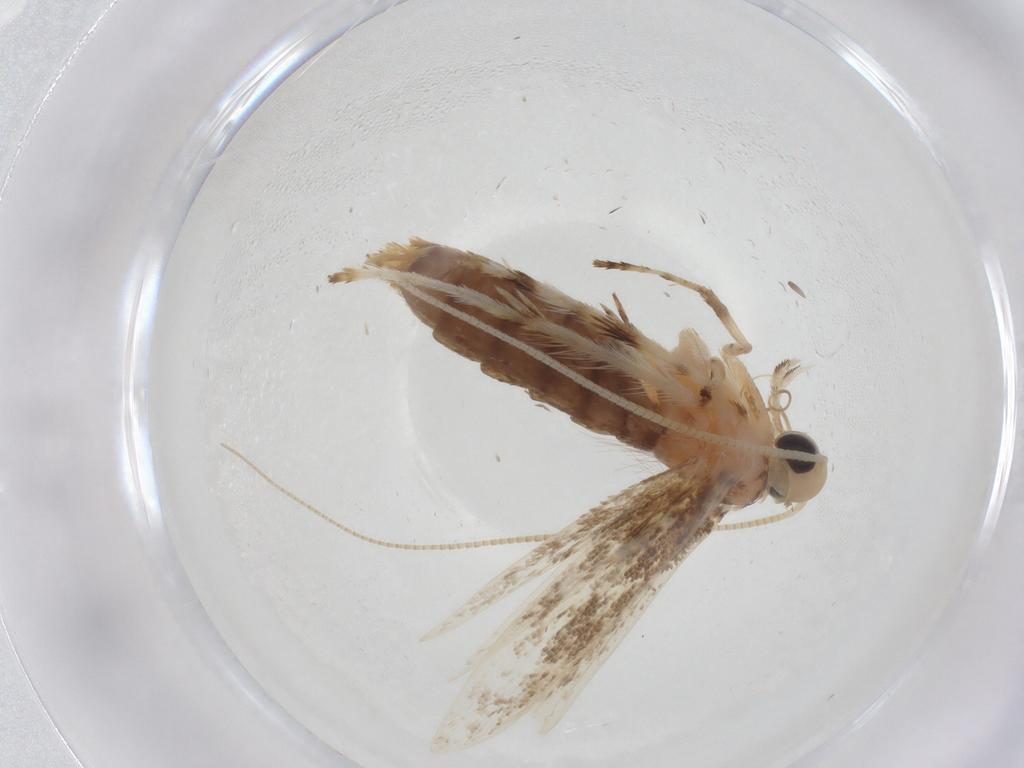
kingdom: Animalia
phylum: Arthropoda
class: Insecta
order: Lepidoptera
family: Gracillariidae
